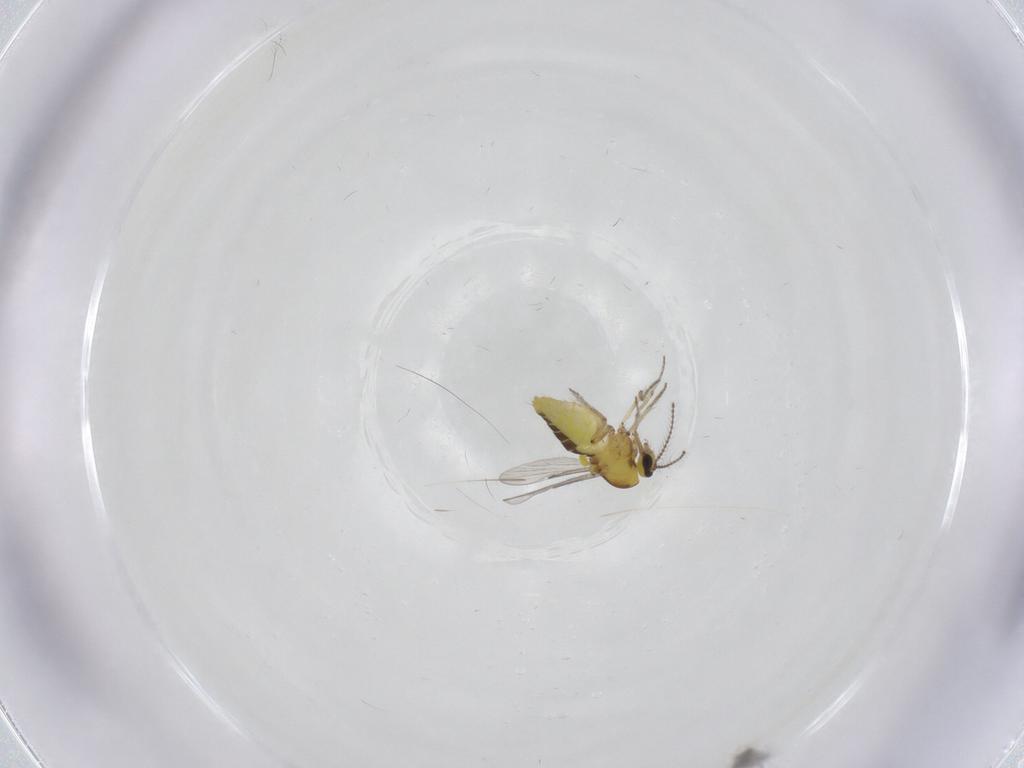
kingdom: Animalia
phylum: Arthropoda
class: Insecta
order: Diptera
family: Ceratopogonidae
